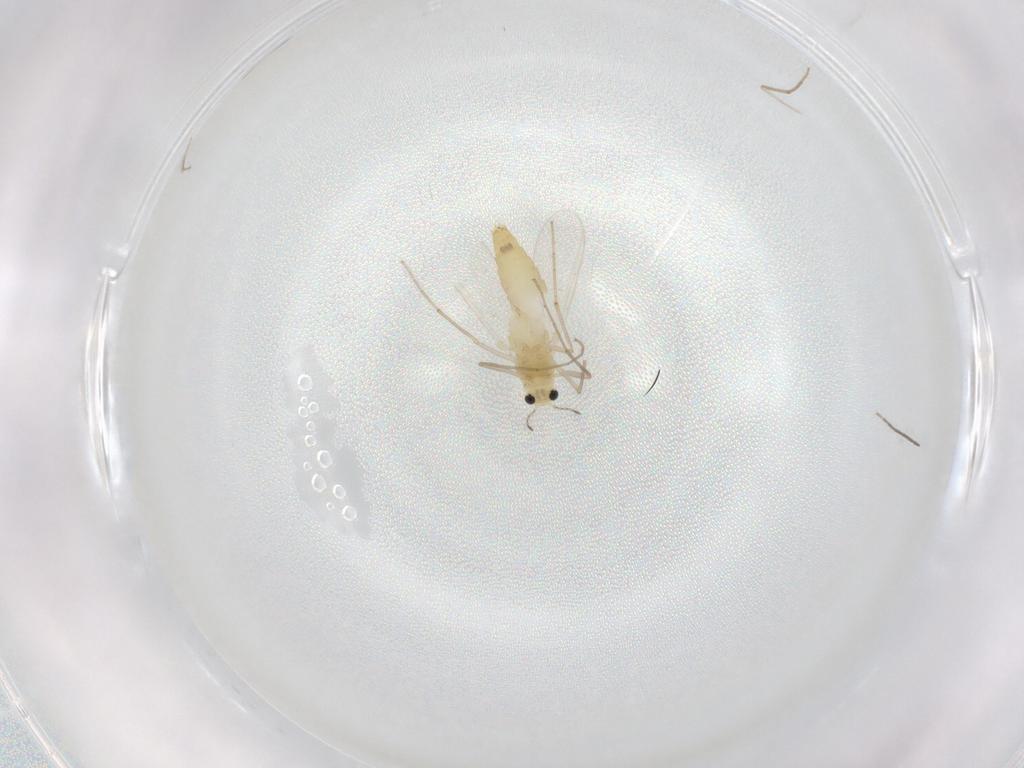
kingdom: Animalia
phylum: Arthropoda
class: Insecta
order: Diptera
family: Chironomidae
